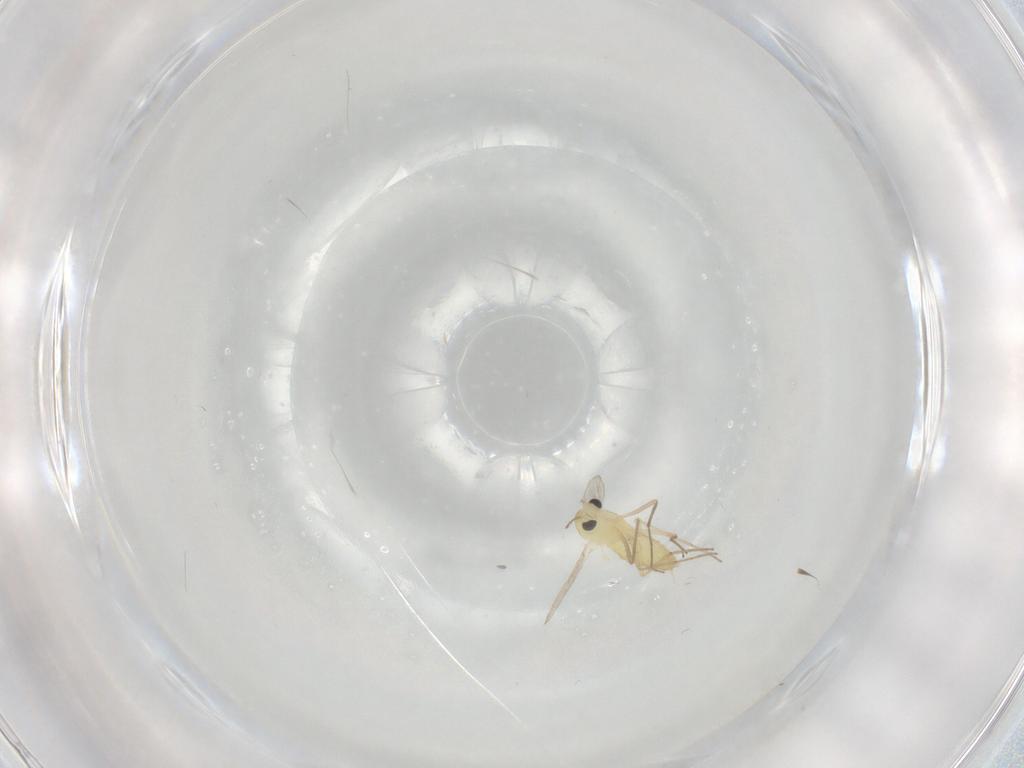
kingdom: Animalia
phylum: Arthropoda
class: Insecta
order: Diptera
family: Chironomidae
